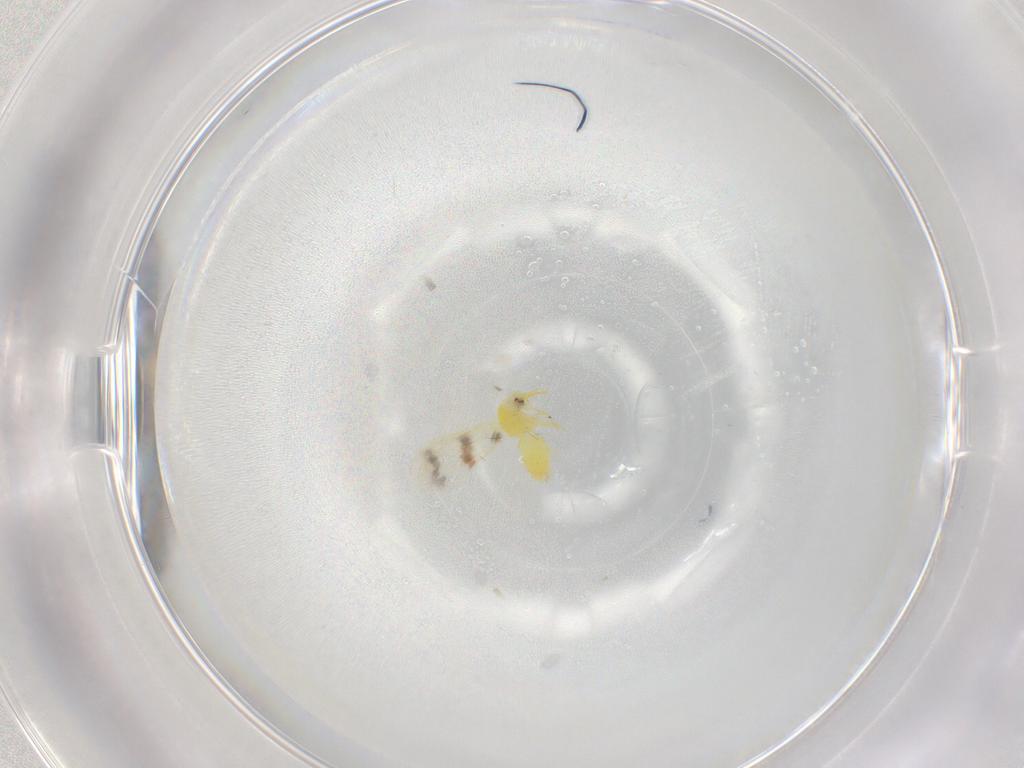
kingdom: Animalia
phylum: Arthropoda
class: Insecta
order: Hemiptera
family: Aleyrodidae
